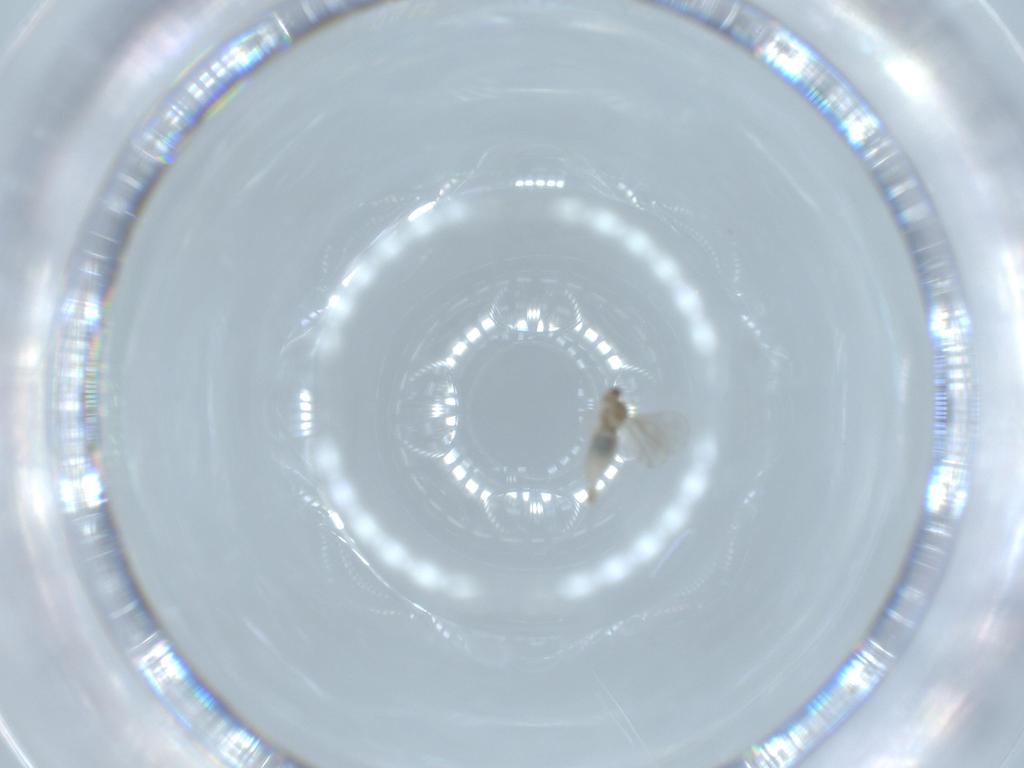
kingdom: Animalia
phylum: Arthropoda
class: Insecta
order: Diptera
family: Cecidomyiidae
